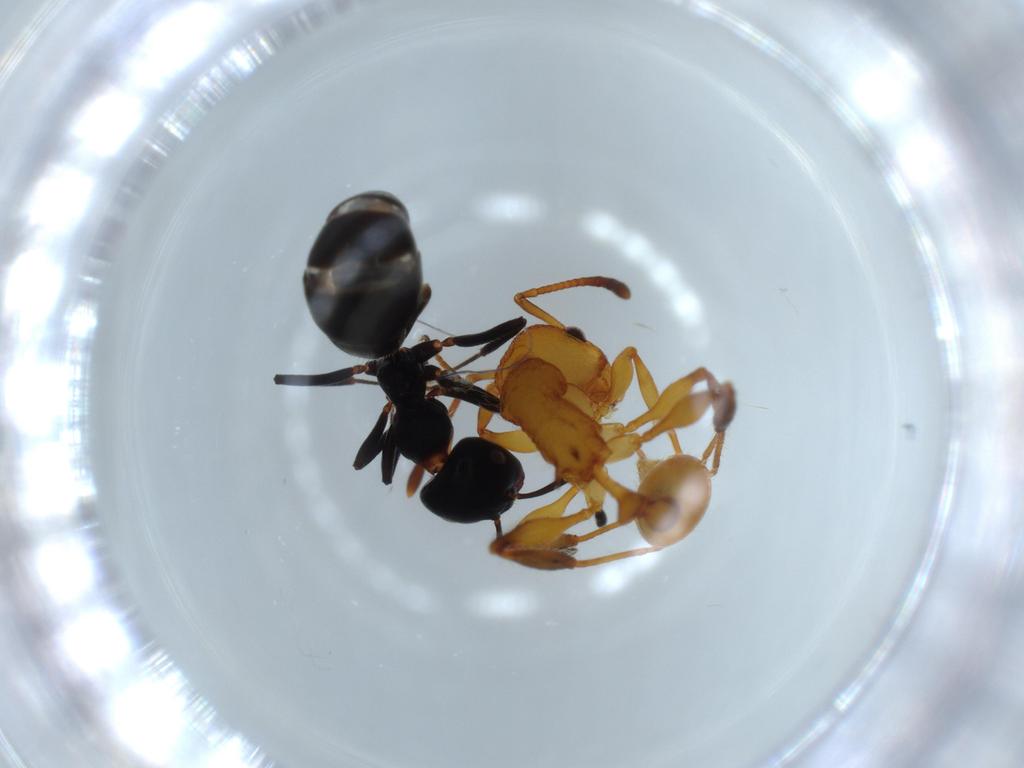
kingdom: Animalia
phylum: Arthropoda
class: Insecta
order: Hymenoptera
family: Formicidae
